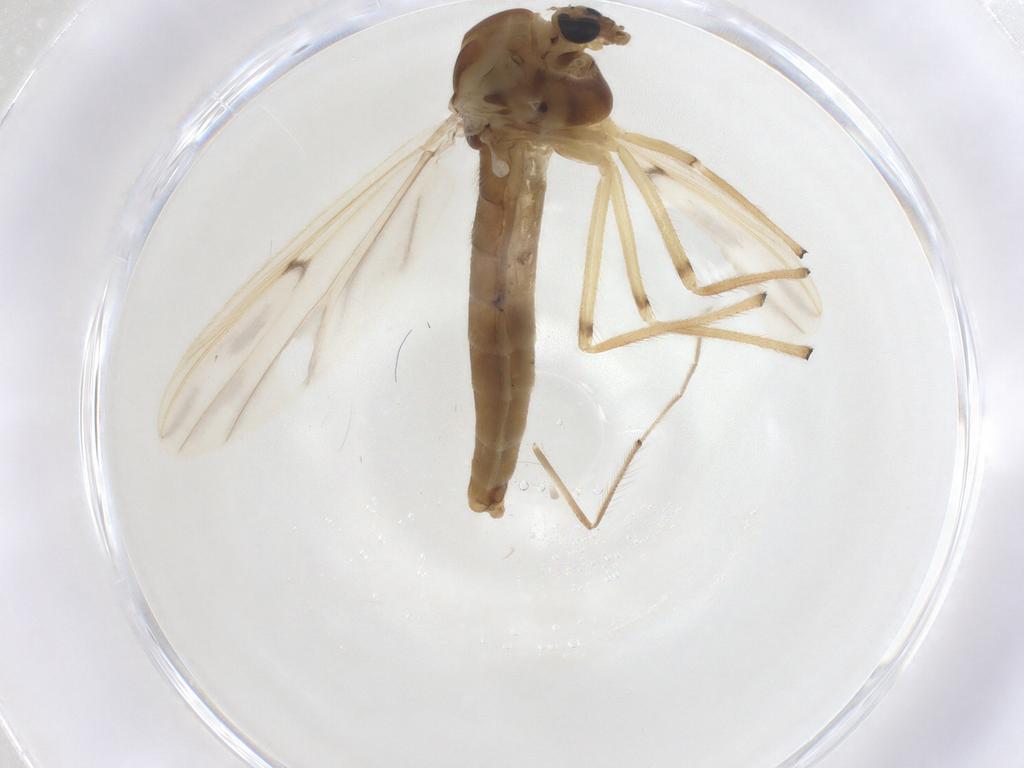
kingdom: Animalia
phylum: Arthropoda
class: Insecta
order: Diptera
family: Chironomidae
